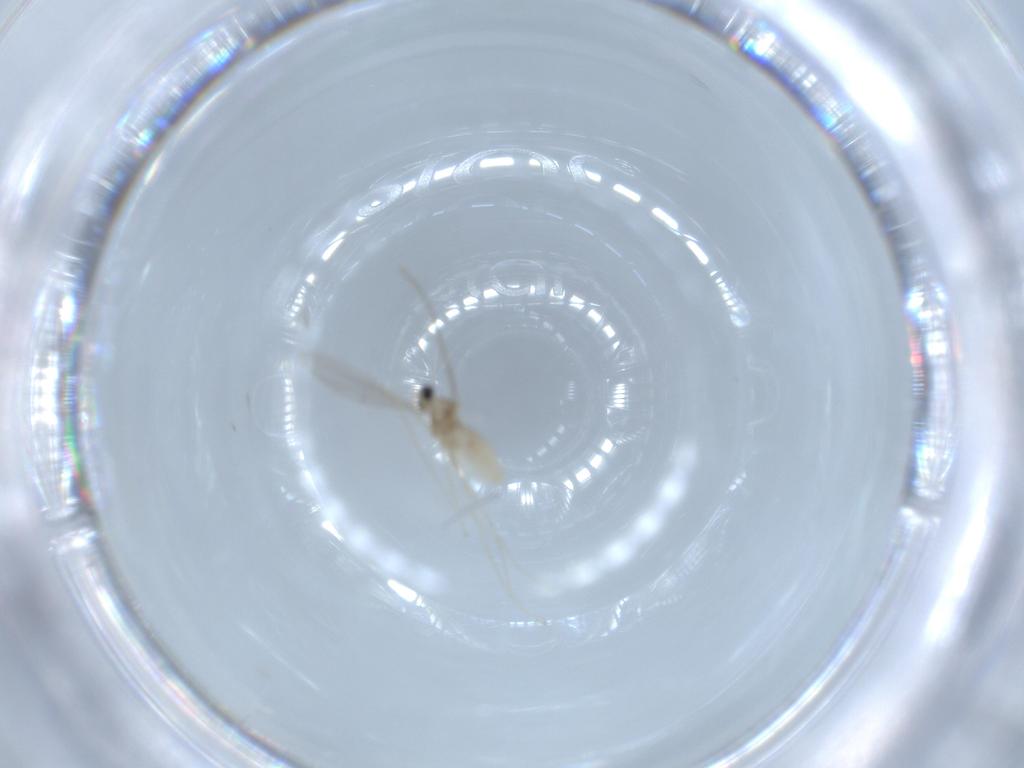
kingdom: Animalia
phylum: Arthropoda
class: Insecta
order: Diptera
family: Cecidomyiidae
